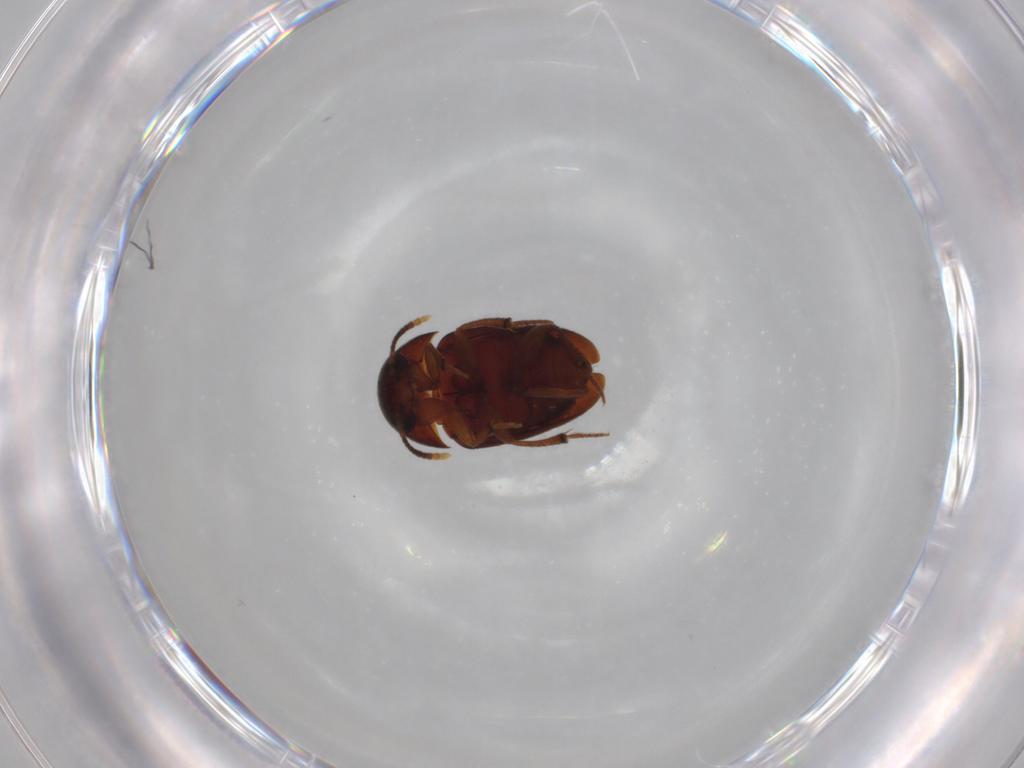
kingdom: Animalia
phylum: Arthropoda
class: Insecta
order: Coleoptera
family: Leiodidae
